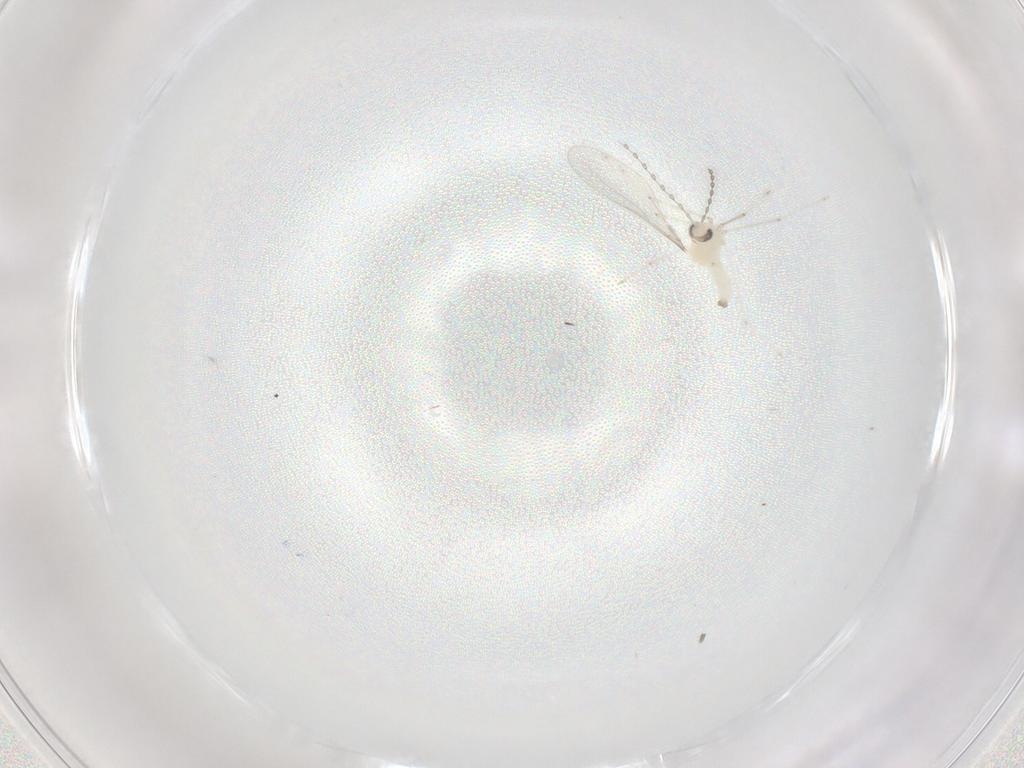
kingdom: Animalia
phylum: Arthropoda
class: Insecta
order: Diptera
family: Cecidomyiidae
